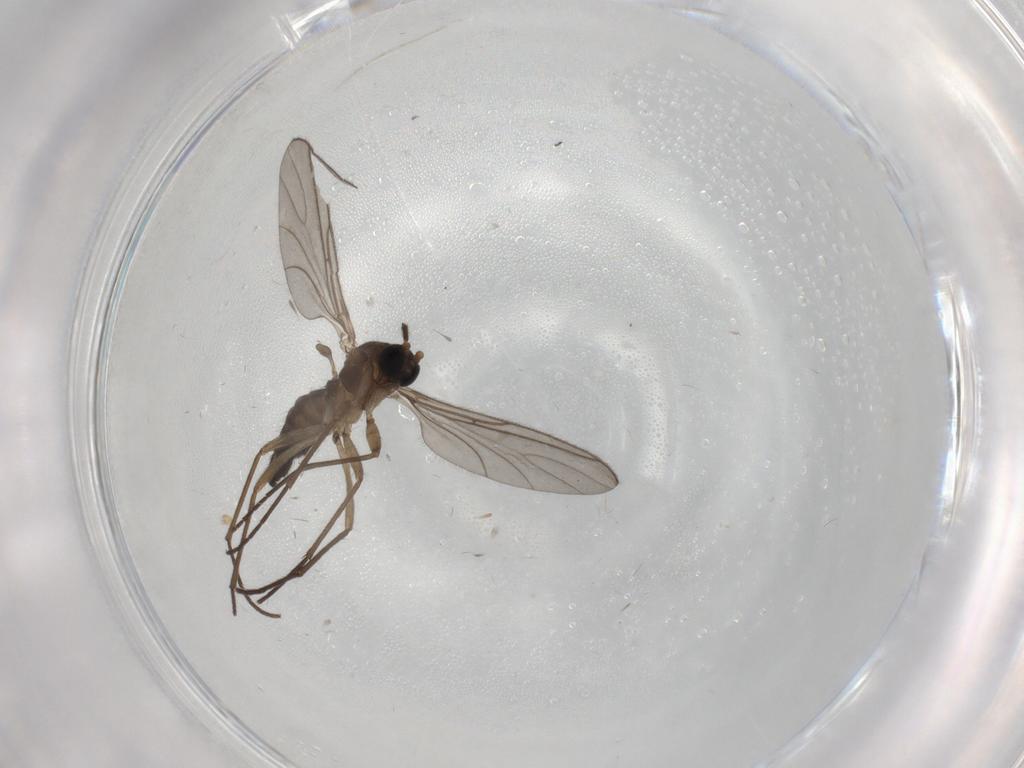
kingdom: Animalia
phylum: Arthropoda
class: Insecta
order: Diptera
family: Sciaridae
